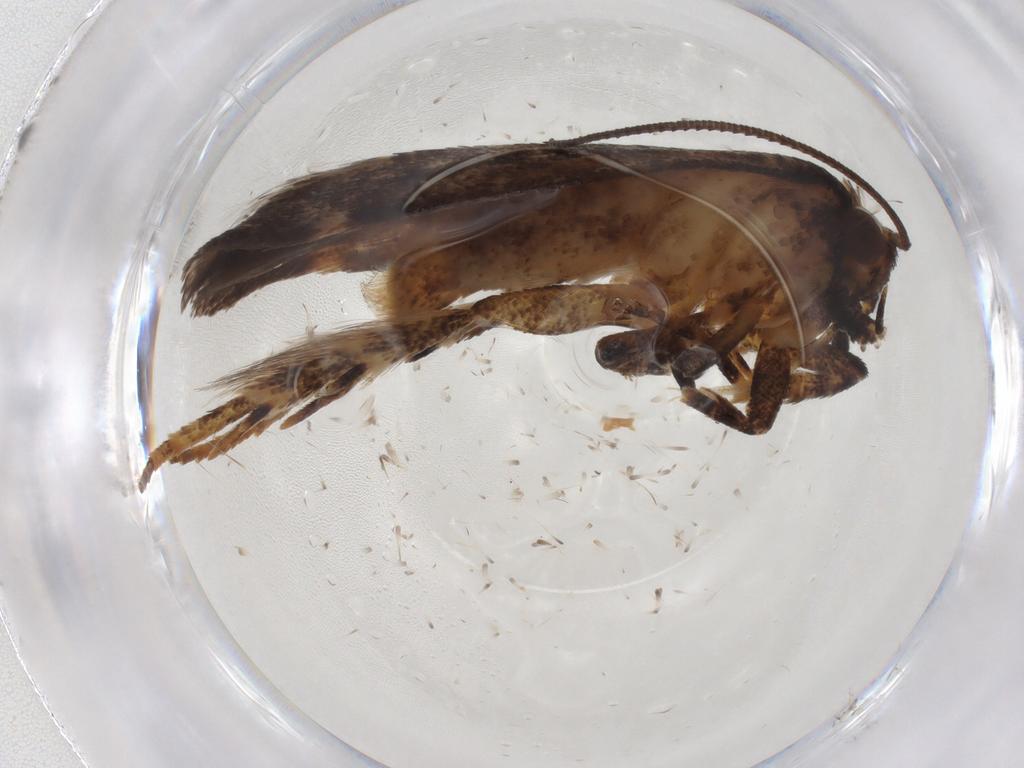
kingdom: Animalia
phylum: Arthropoda
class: Insecta
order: Lepidoptera
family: Gelechiidae
